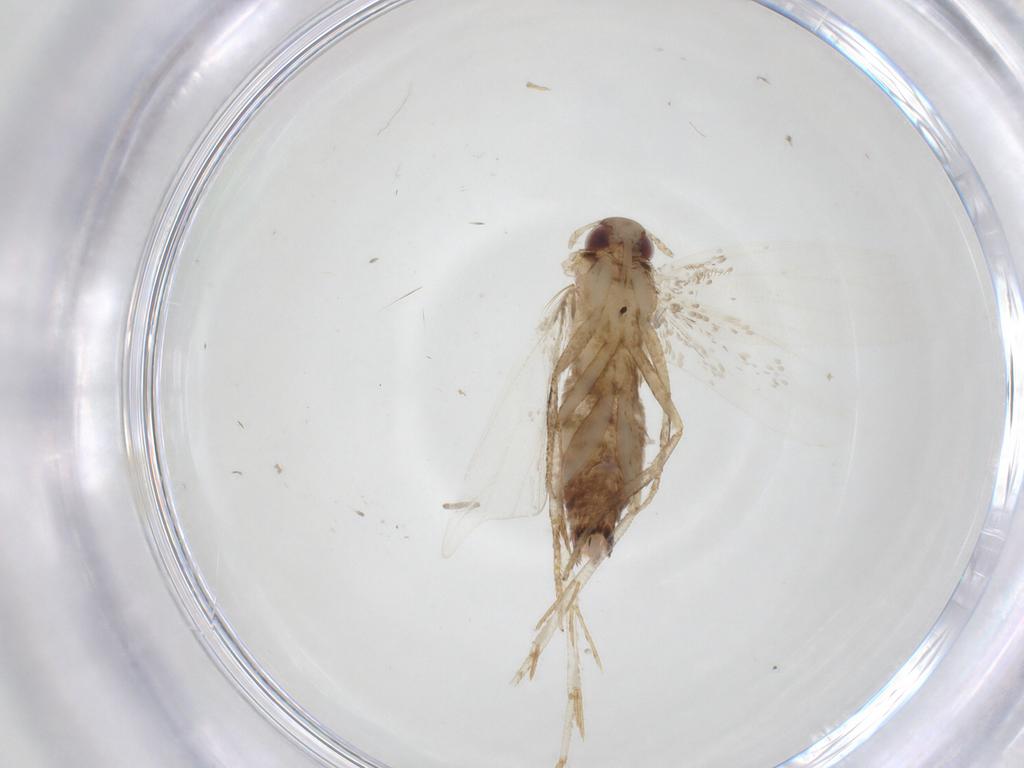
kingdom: Animalia
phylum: Arthropoda
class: Insecta
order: Lepidoptera
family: Gelechiidae
